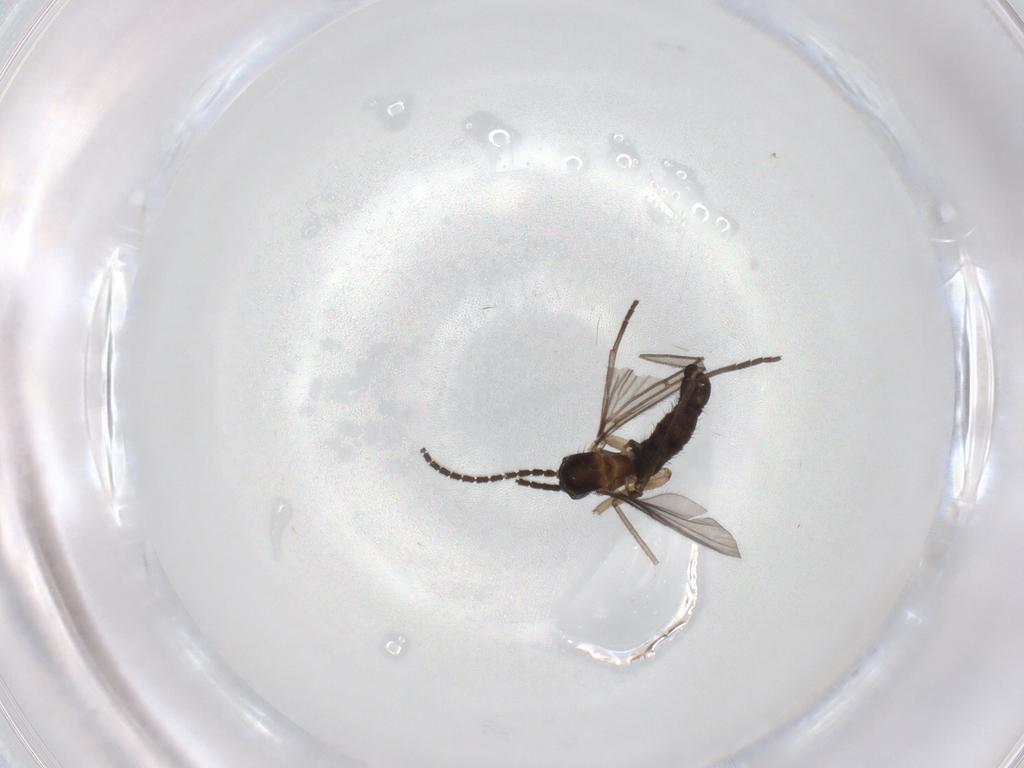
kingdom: Animalia
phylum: Arthropoda
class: Insecta
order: Diptera
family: Sciaridae
